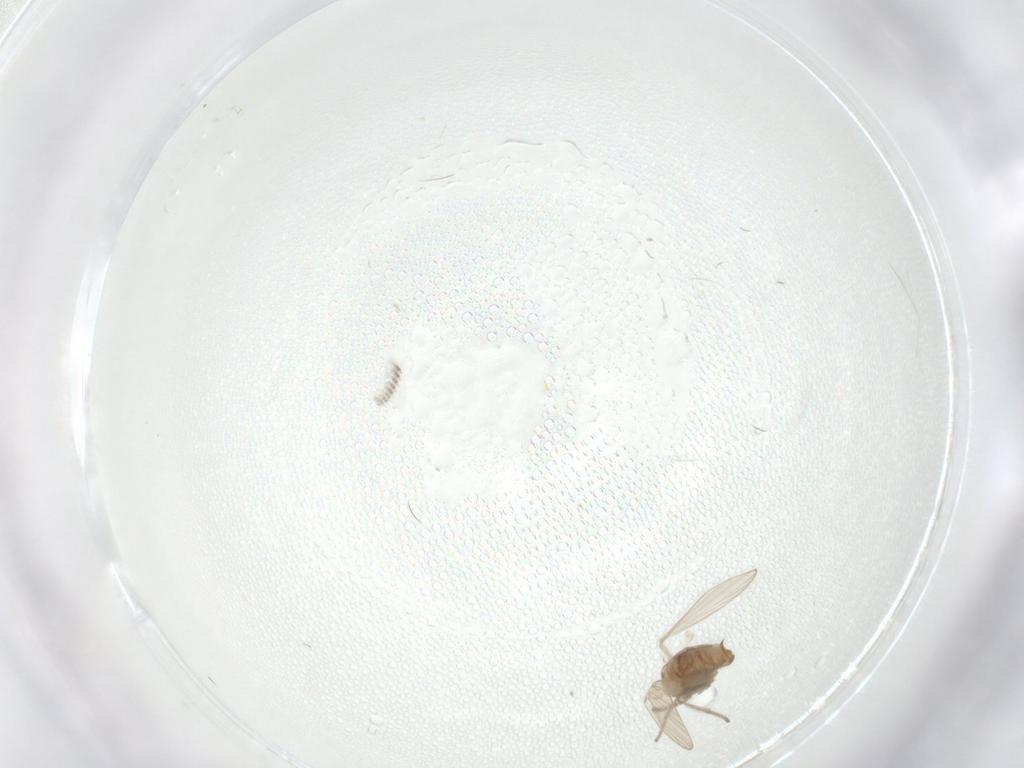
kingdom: Animalia
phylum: Arthropoda
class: Insecta
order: Diptera
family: Psychodidae
